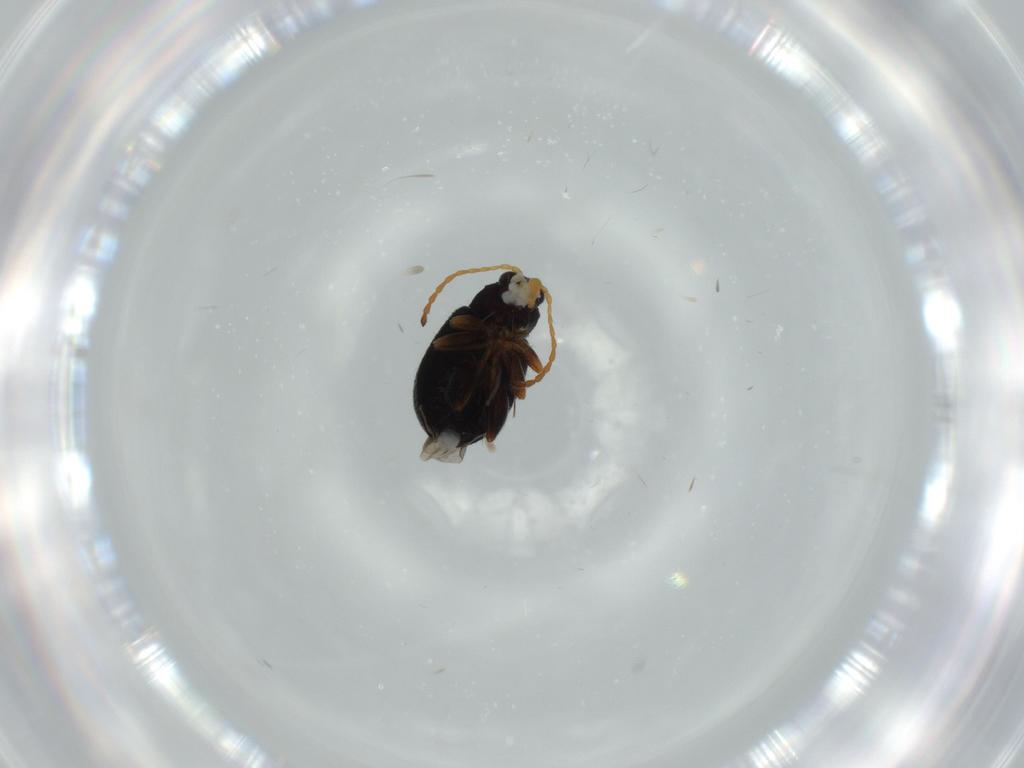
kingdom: Animalia
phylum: Arthropoda
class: Insecta
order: Coleoptera
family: Chrysomelidae
